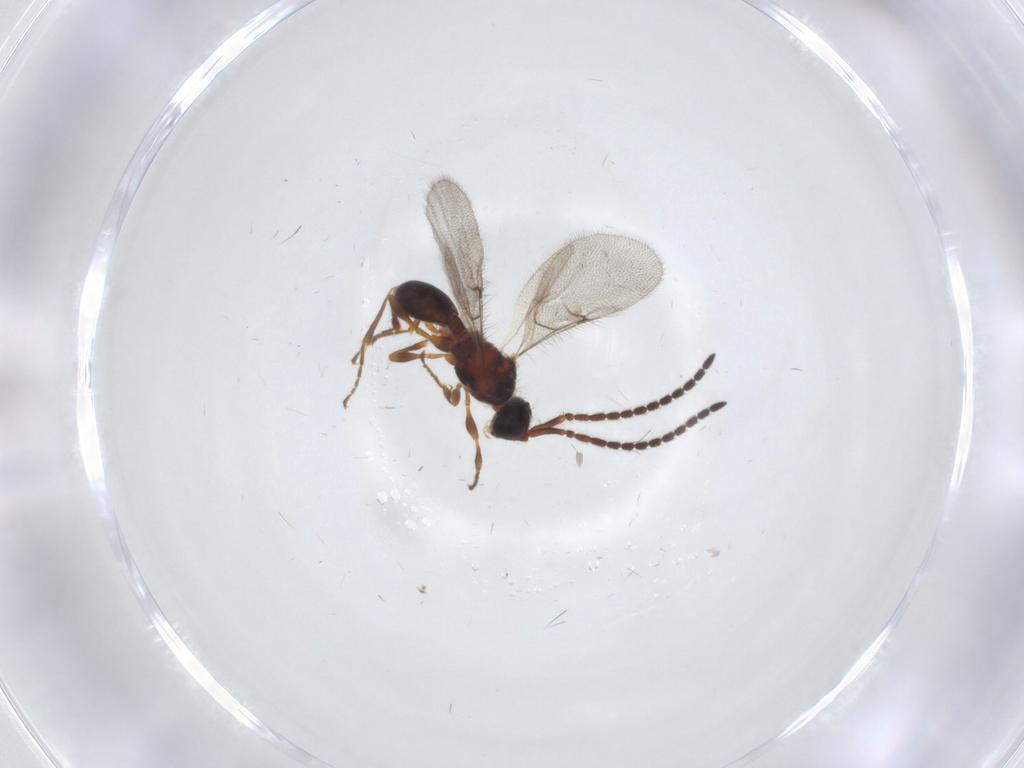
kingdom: Animalia
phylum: Arthropoda
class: Insecta
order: Hymenoptera
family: Diapriidae
